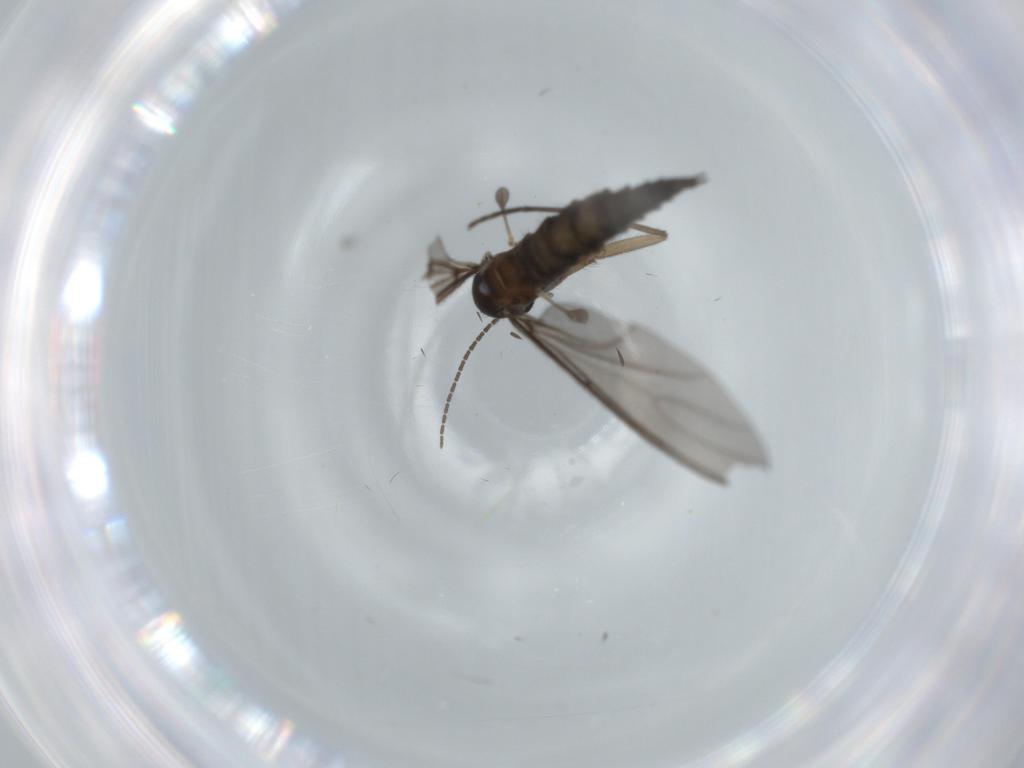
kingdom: Animalia
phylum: Arthropoda
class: Insecta
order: Diptera
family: Sciaridae
